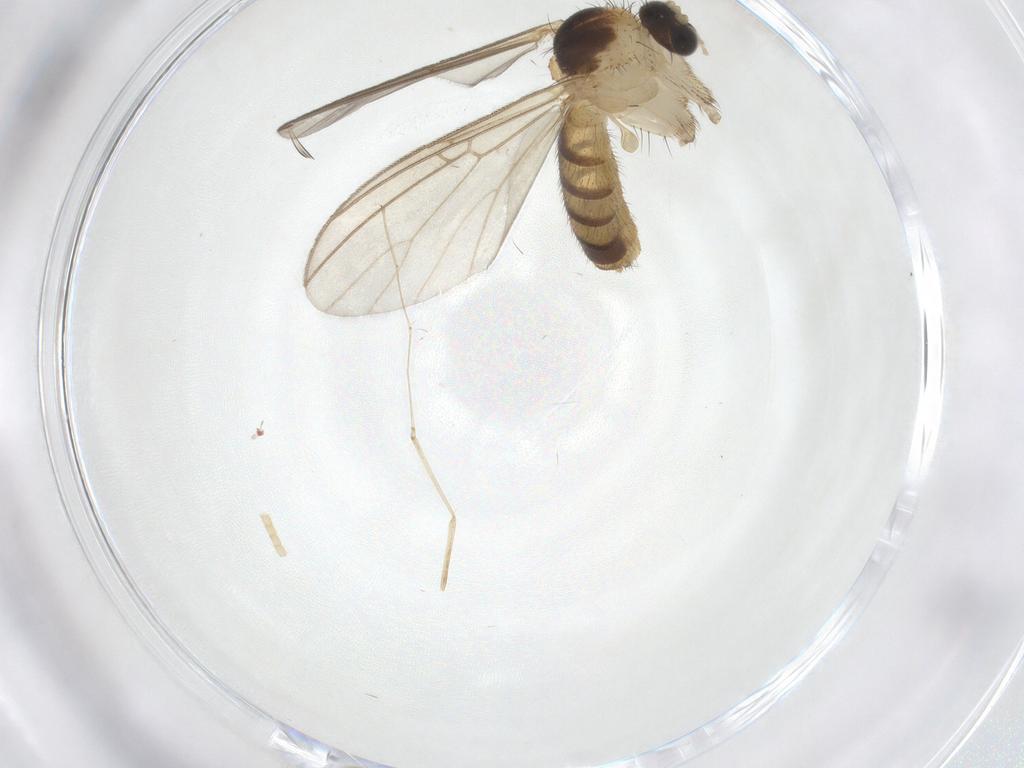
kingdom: Animalia
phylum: Arthropoda
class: Insecta
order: Diptera
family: Mycetophilidae
